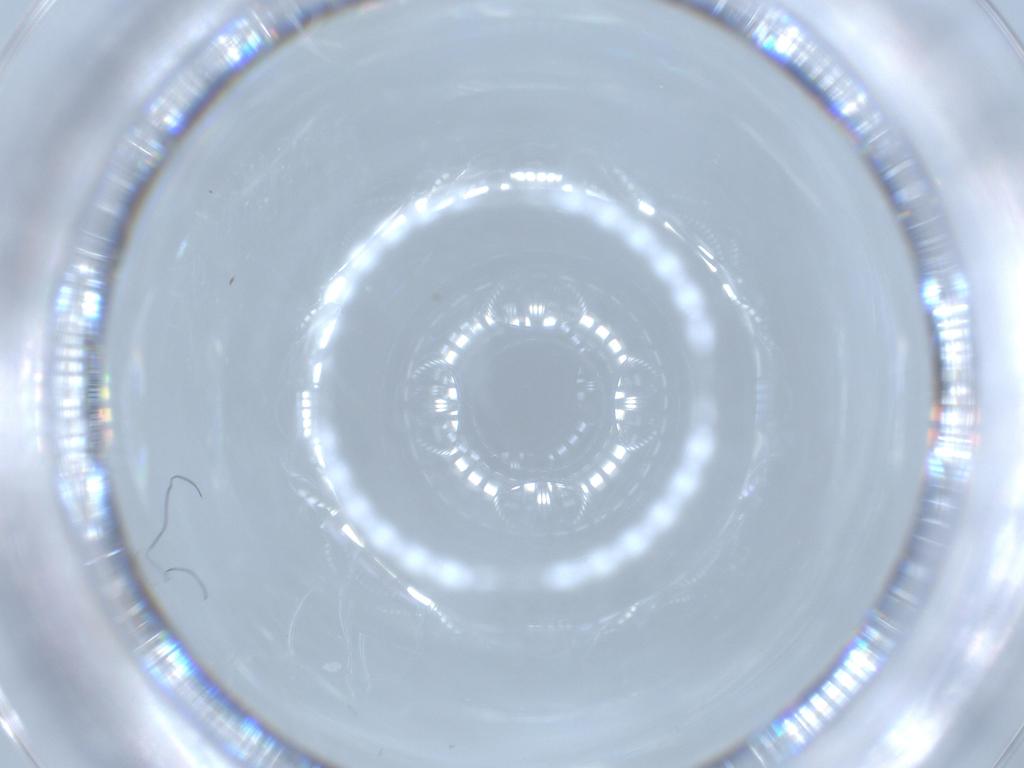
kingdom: Animalia
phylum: Arthropoda
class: Insecta
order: Diptera
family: Cecidomyiidae
